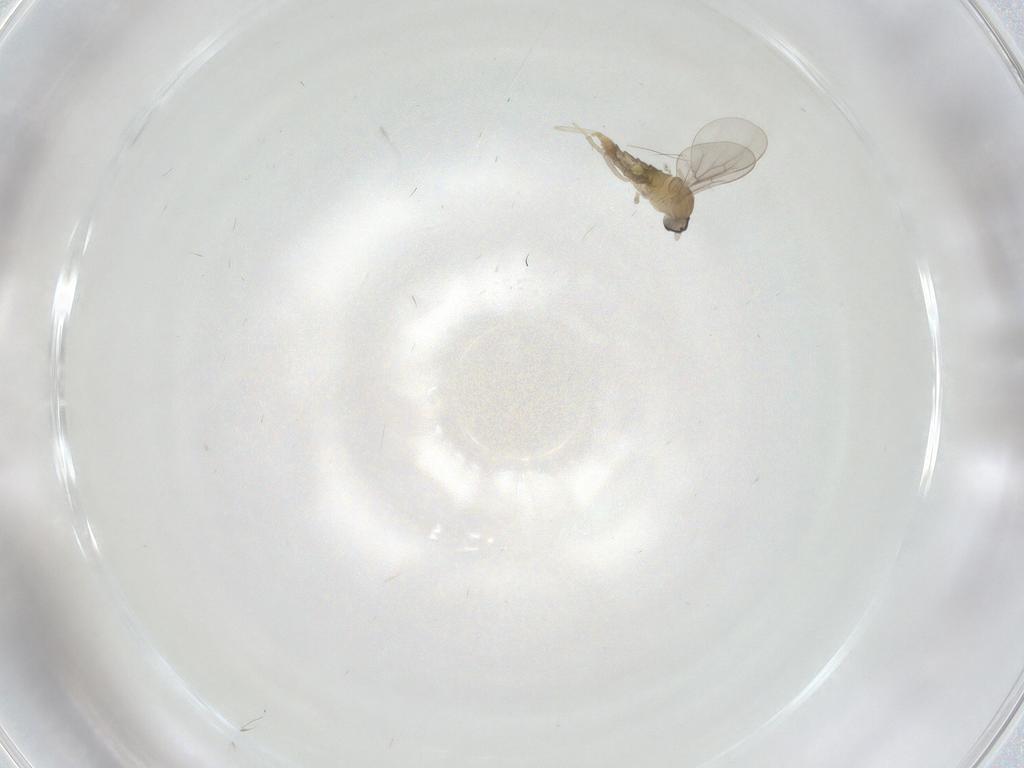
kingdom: Animalia
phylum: Arthropoda
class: Insecta
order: Diptera
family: Cecidomyiidae
